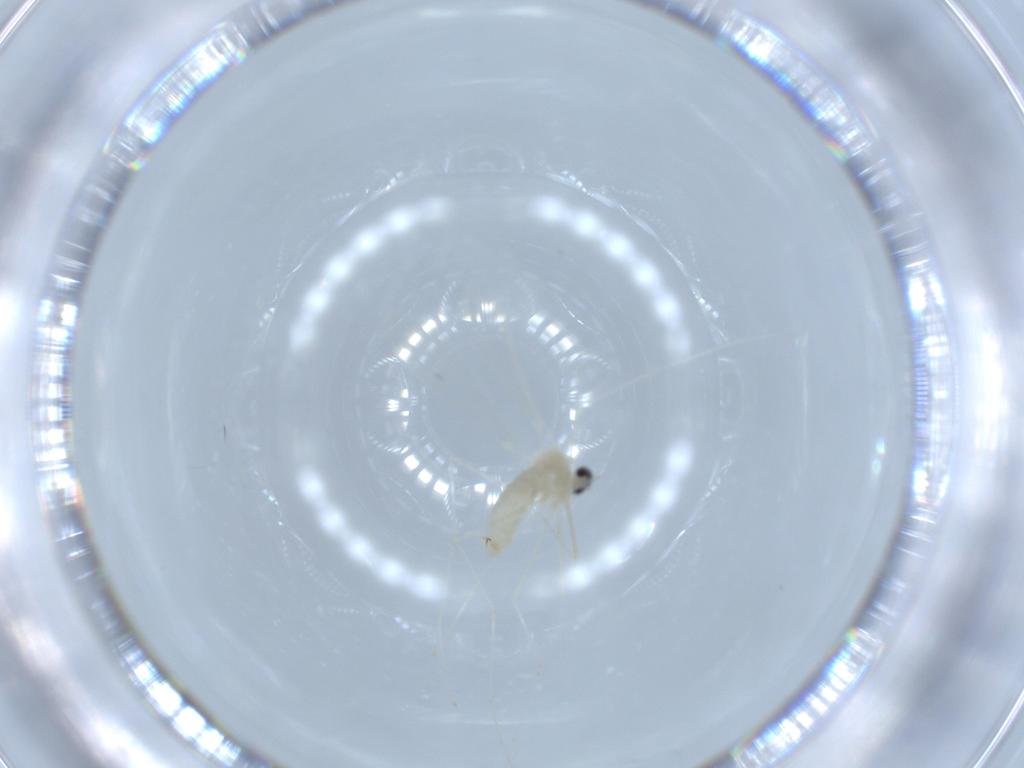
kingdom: Animalia
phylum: Arthropoda
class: Insecta
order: Diptera
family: Cecidomyiidae
